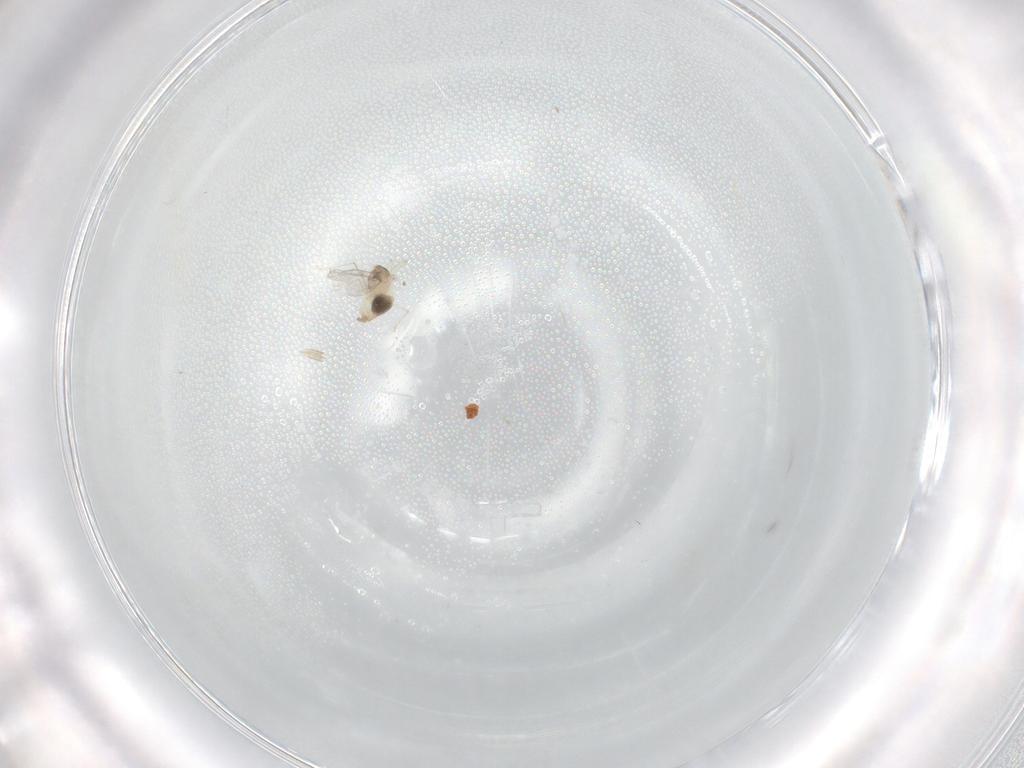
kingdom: Animalia
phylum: Arthropoda
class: Insecta
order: Diptera
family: Cecidomyiidae
